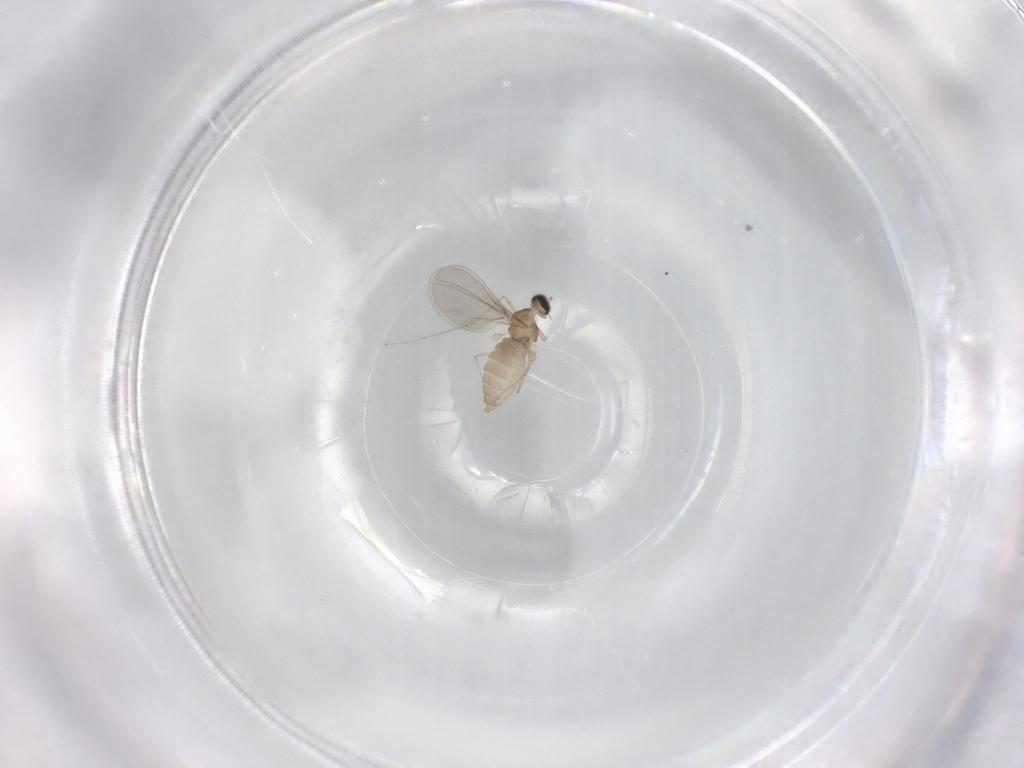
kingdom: Animalia
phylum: Arthropoda
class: Insecta
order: Diptera
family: Cecidomyiidae
